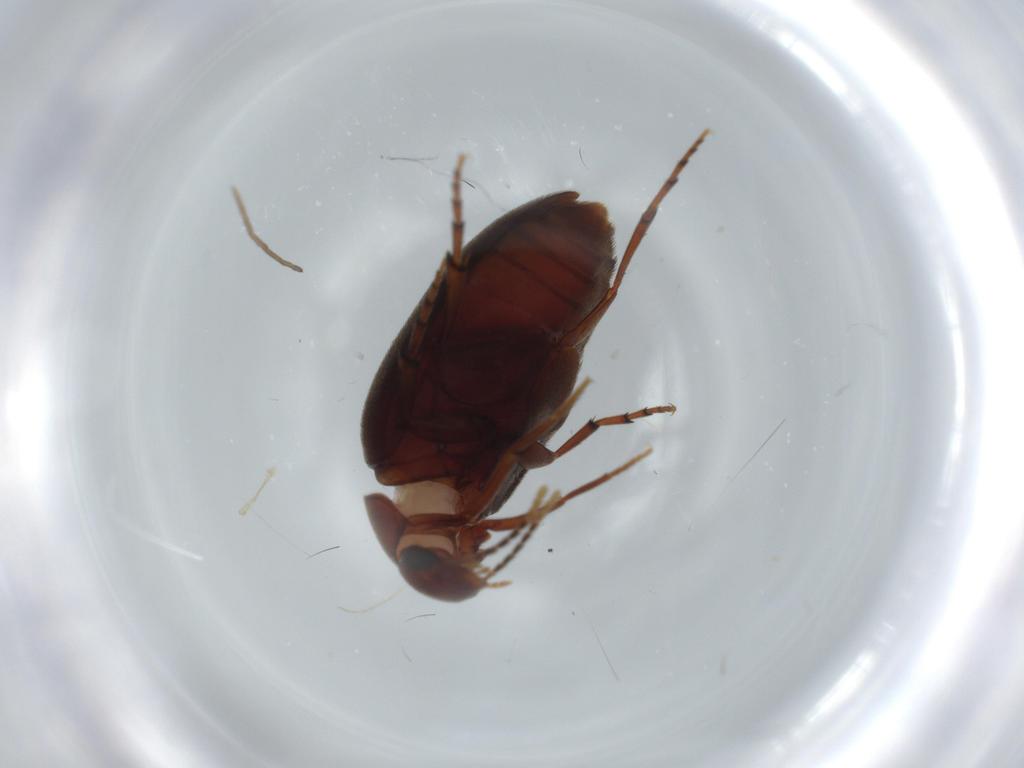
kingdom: Animalia
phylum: Arthropoda
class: Insecta
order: Coleoptera
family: Eucinetidae
